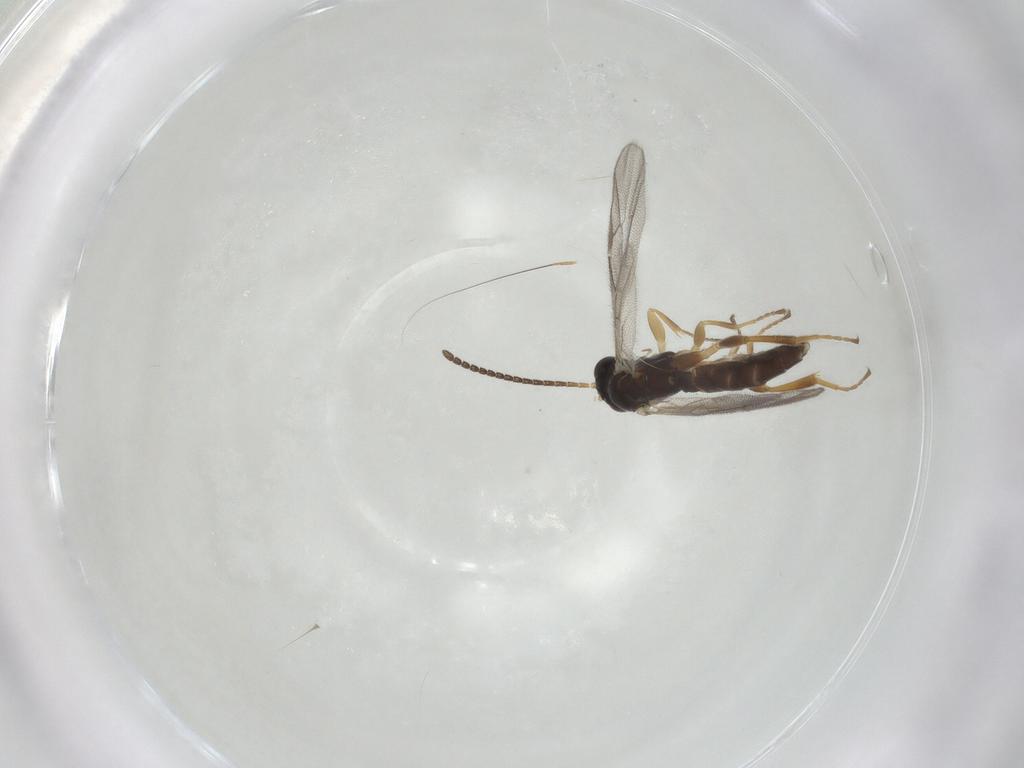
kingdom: Animalia
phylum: Arthropoda
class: Insecta
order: Hymenoptera
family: Ichneumonidae
